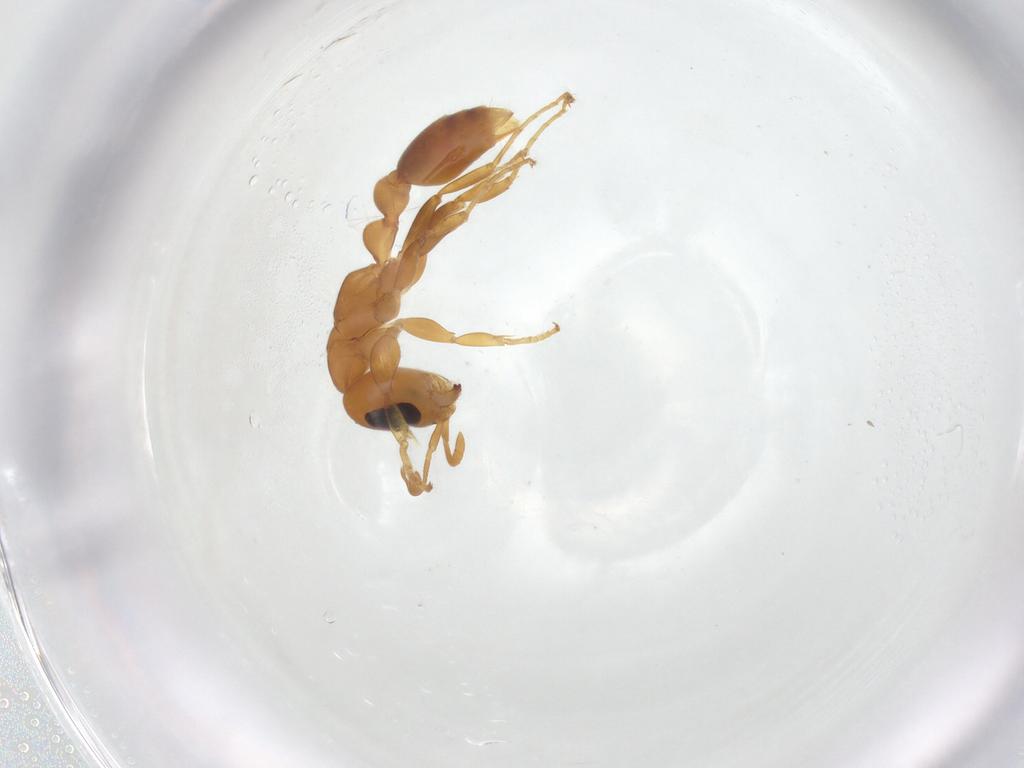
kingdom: Animalia
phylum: Arthropoda
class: Insecta
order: Hymenoptera
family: Formicidae
